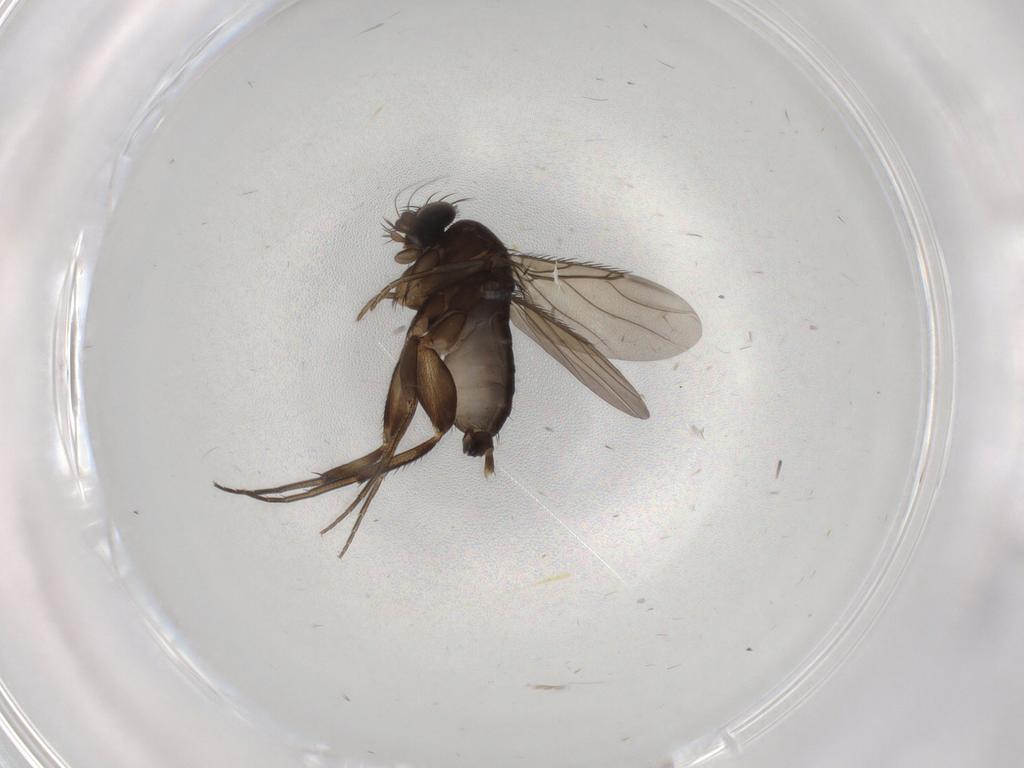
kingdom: Animalia
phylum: Arthropoda
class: Insecta
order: Diptera
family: Phoridae
